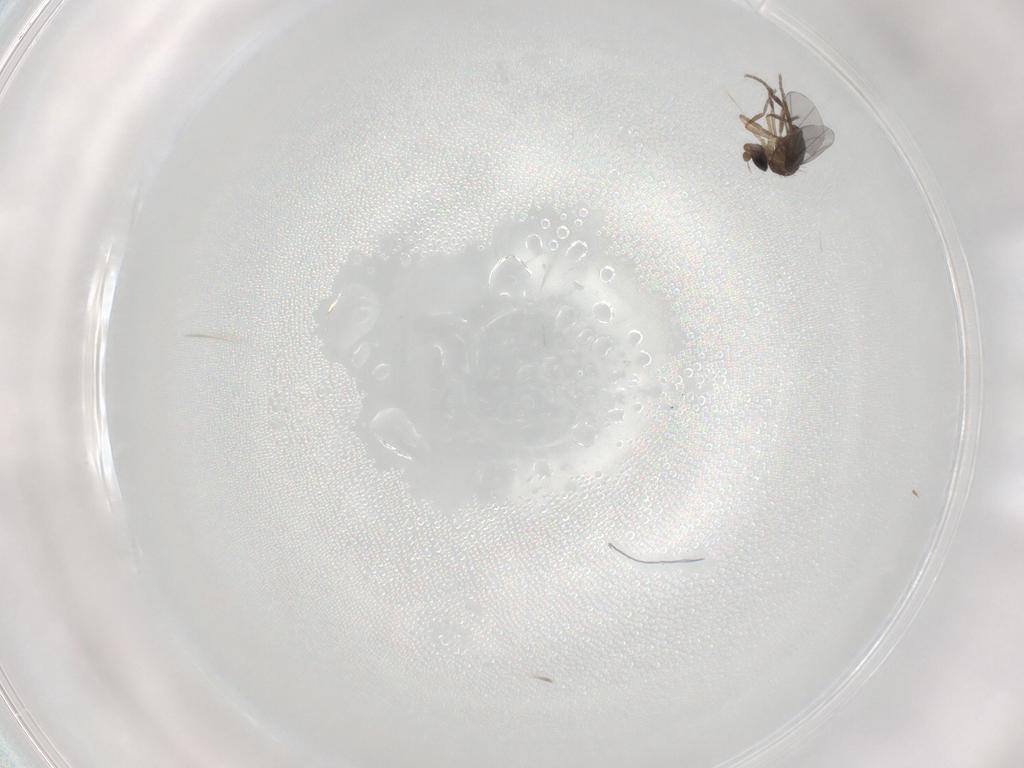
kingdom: Animalia
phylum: Arthropoda
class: Insecta
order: Diptera
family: Phoridae
